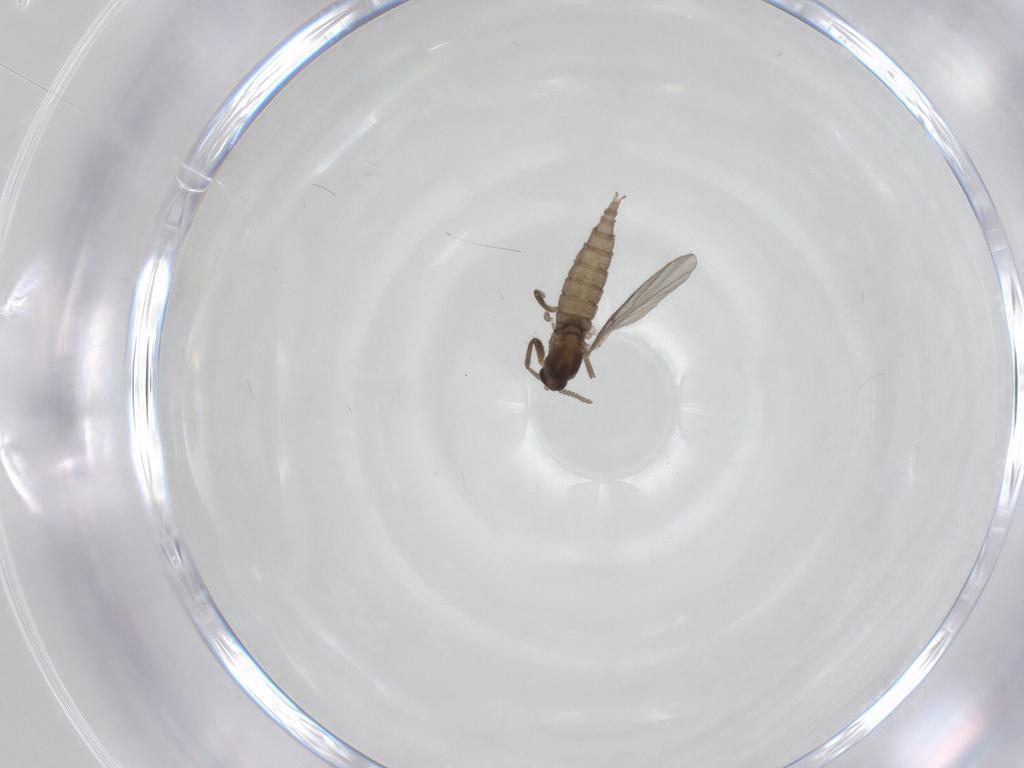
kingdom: Animalia
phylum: Arthropoda
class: Insecta
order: Diptera
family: Cecidomyiidae
